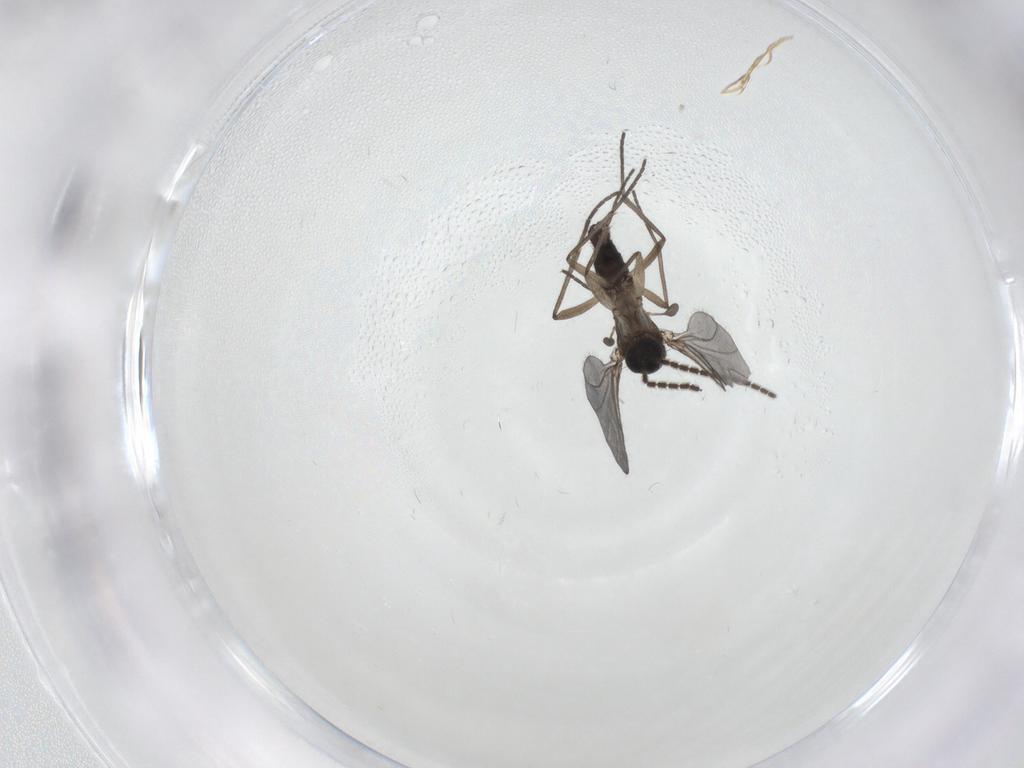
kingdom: Animalia
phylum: Arthropoda
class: Insecta
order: Diptera
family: Sciaridae
